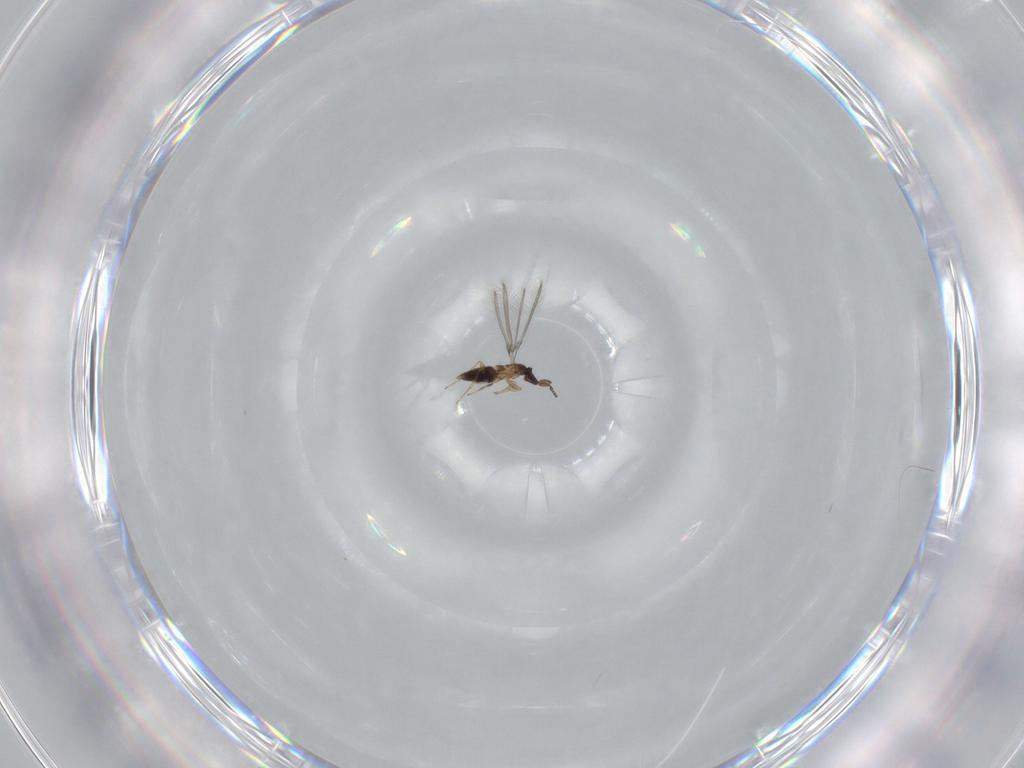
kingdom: Animalia
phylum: Arthropoda
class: Insecta
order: Hymenoptera
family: Mymaridae
